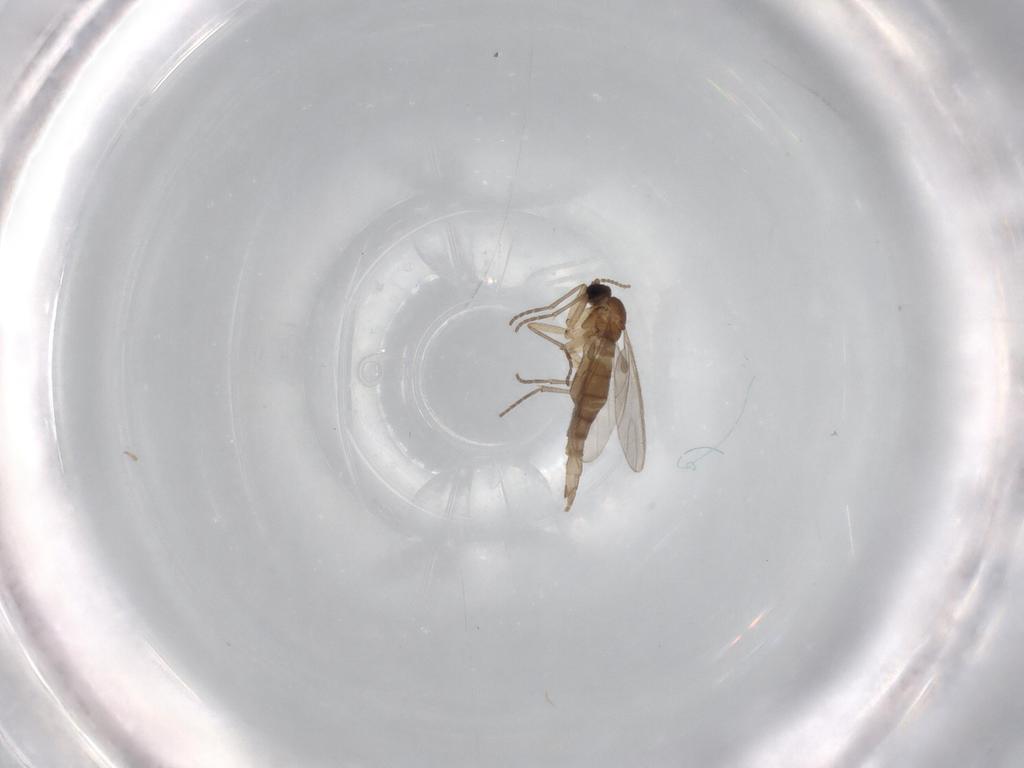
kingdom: Animalia
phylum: Arthropoda
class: Insecta
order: Diptera
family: Sciaridae
